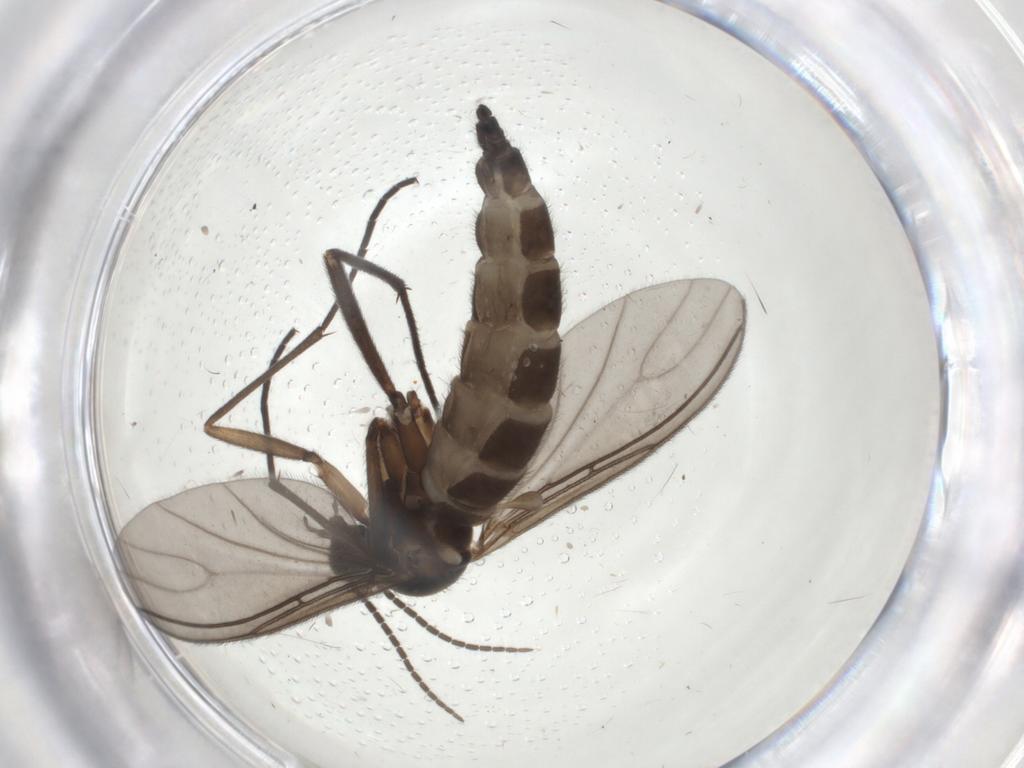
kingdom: Animalia
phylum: Arthropoda
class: Insecta
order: Diptera
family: Sciaridae
